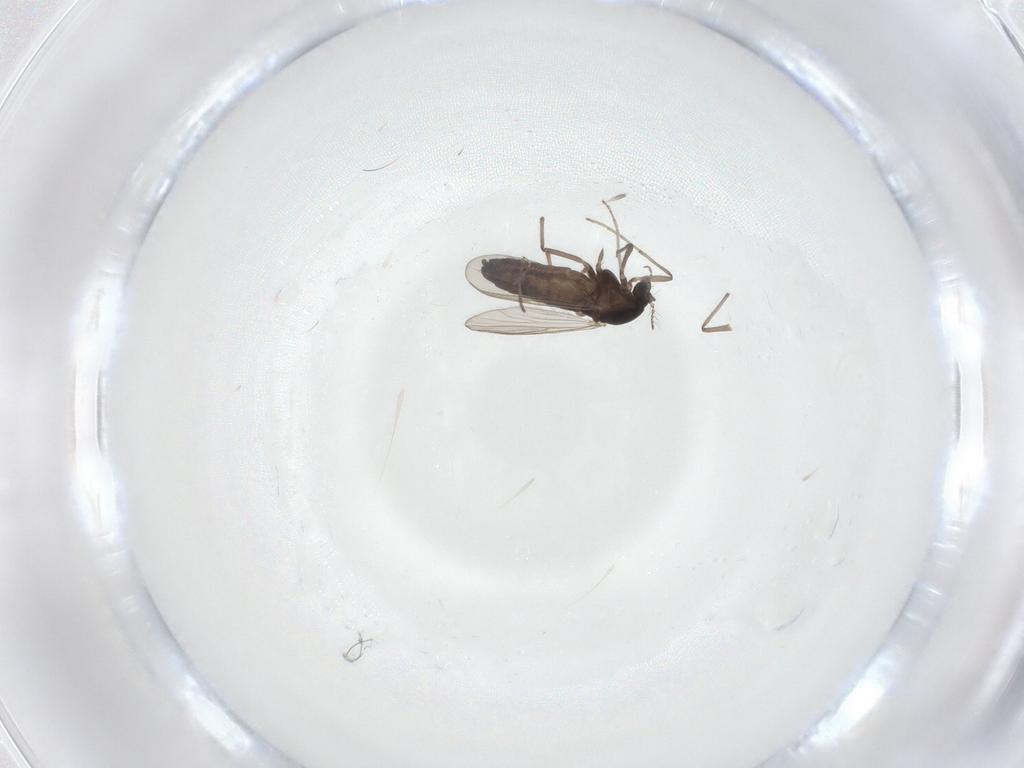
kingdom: Animalia
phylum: Arthropoda
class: Insecta
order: Diptera
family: Chironomidae
